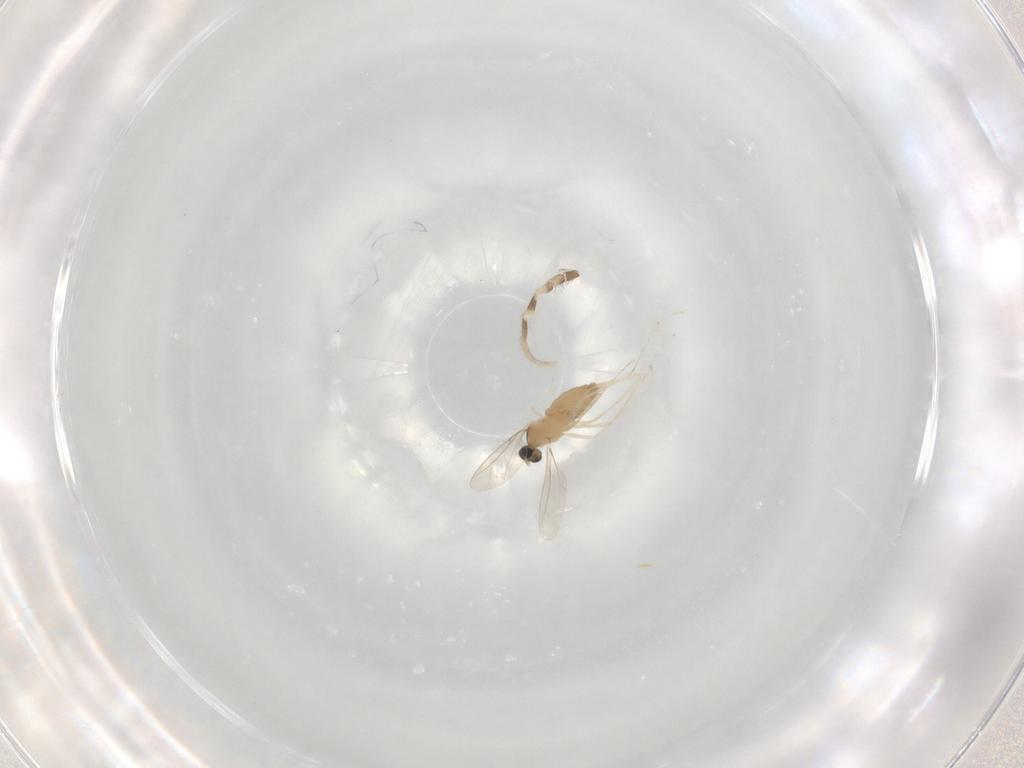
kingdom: Animalia
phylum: Arthropoda
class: Insecta
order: Diptera
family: Cecidomyiidae
